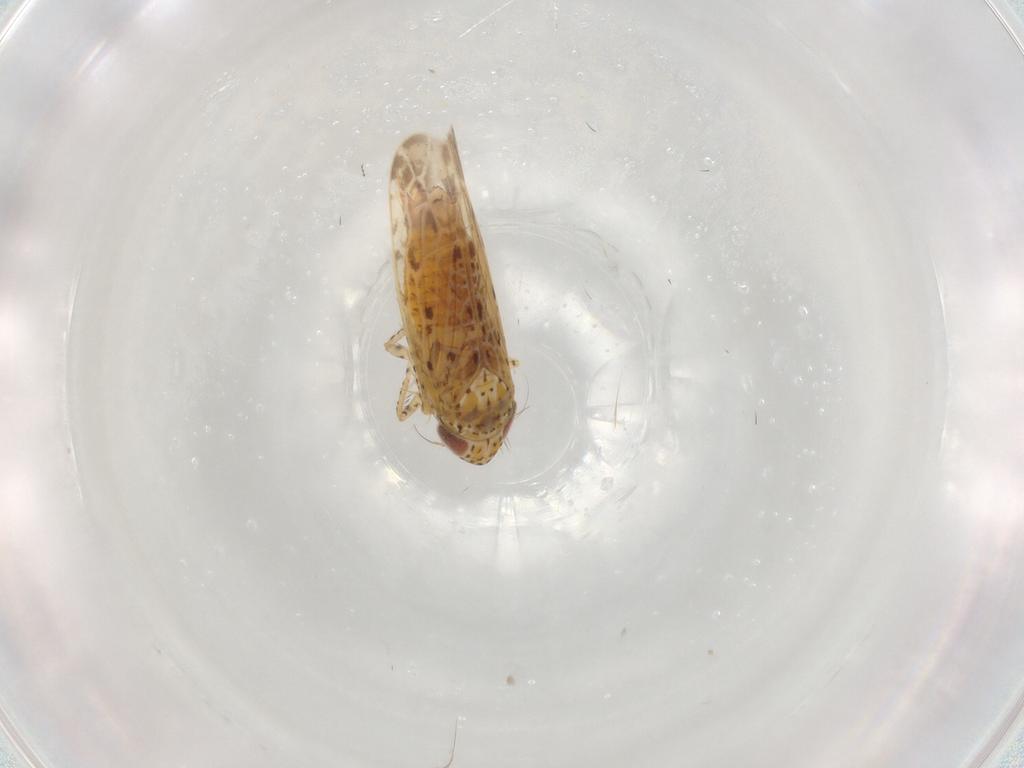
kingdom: Animalia
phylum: Arthropoda
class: Insecta
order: Hemiptera
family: Cicadellidae
